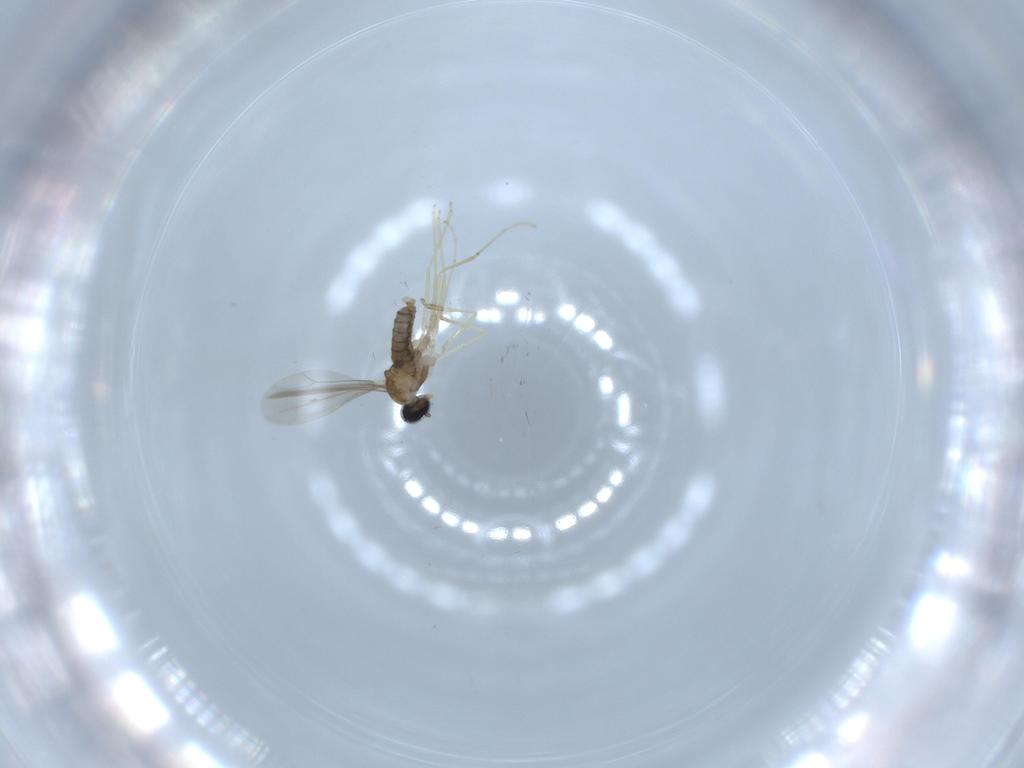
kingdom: Animalia
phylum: Arthropoda
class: Insecta
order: Diptera
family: Cecidomyiidae
